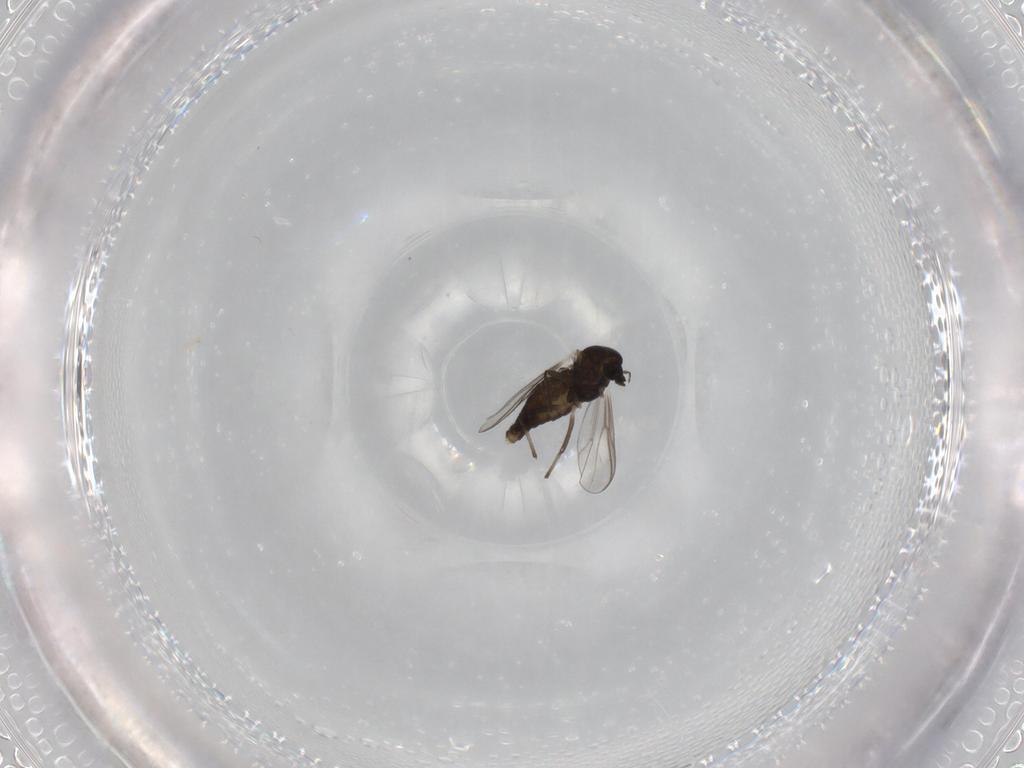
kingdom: Animalia
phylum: Arthropoda
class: Insecta
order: Diptera
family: Chironomidae
